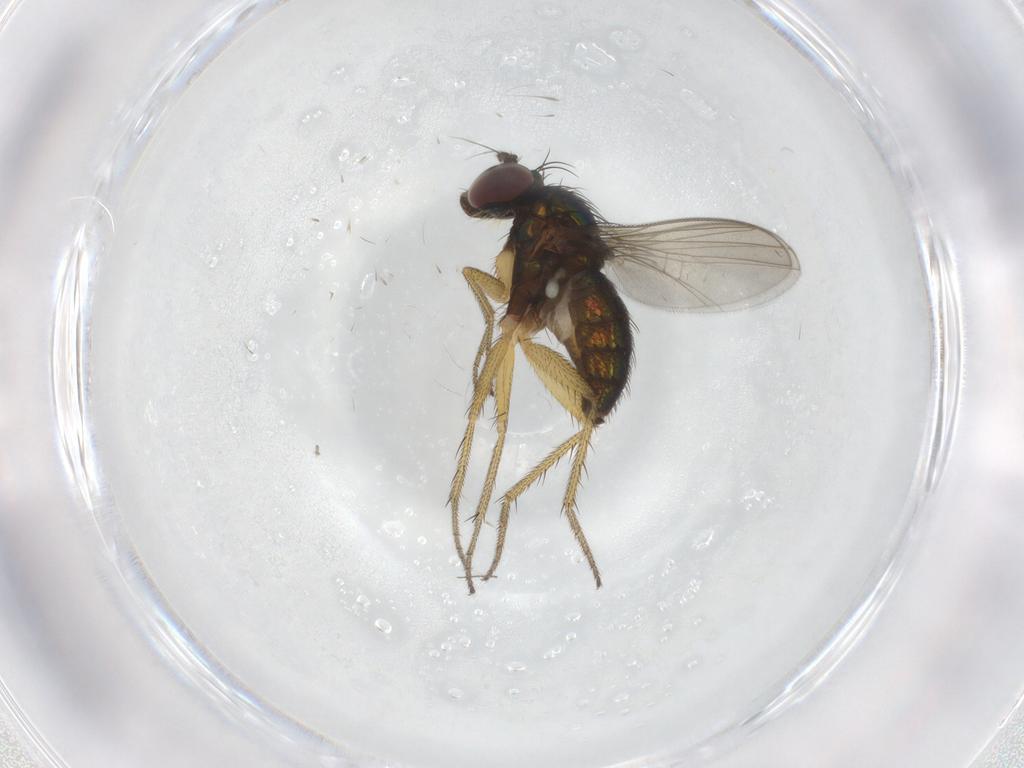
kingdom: Animalia
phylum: Arthropoda
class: Insecta
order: Diptera
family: Dolichopodidae
